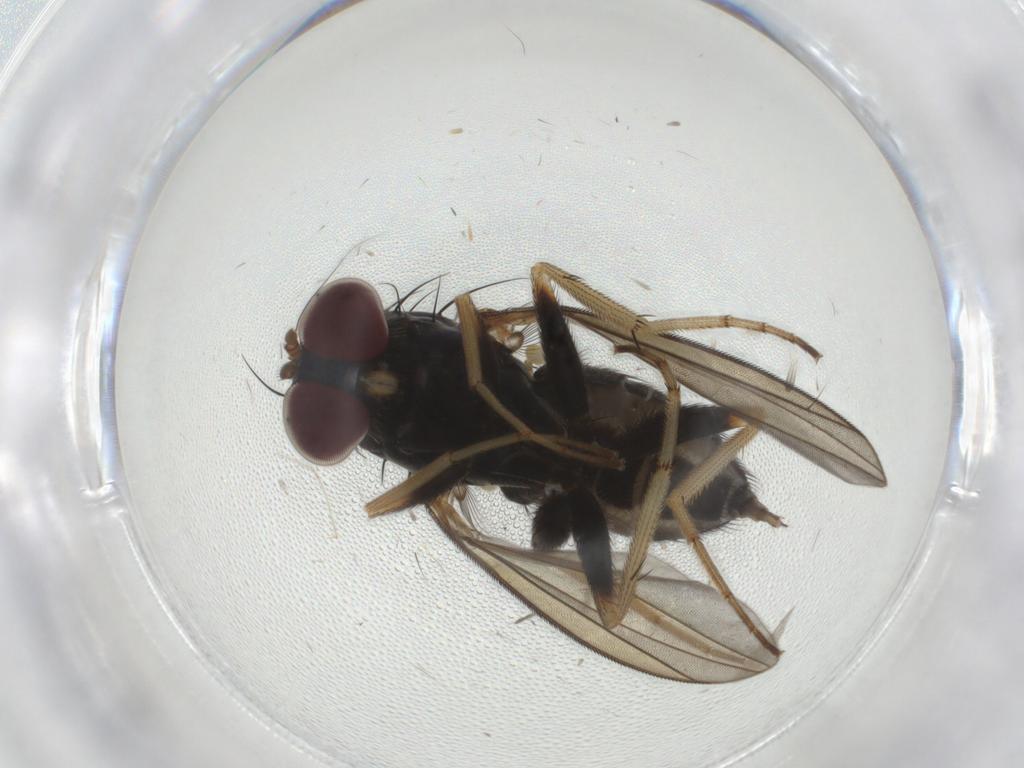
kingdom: Animalia
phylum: Arthropoda
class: Insecta
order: Diptera
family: Dolichopodidae
